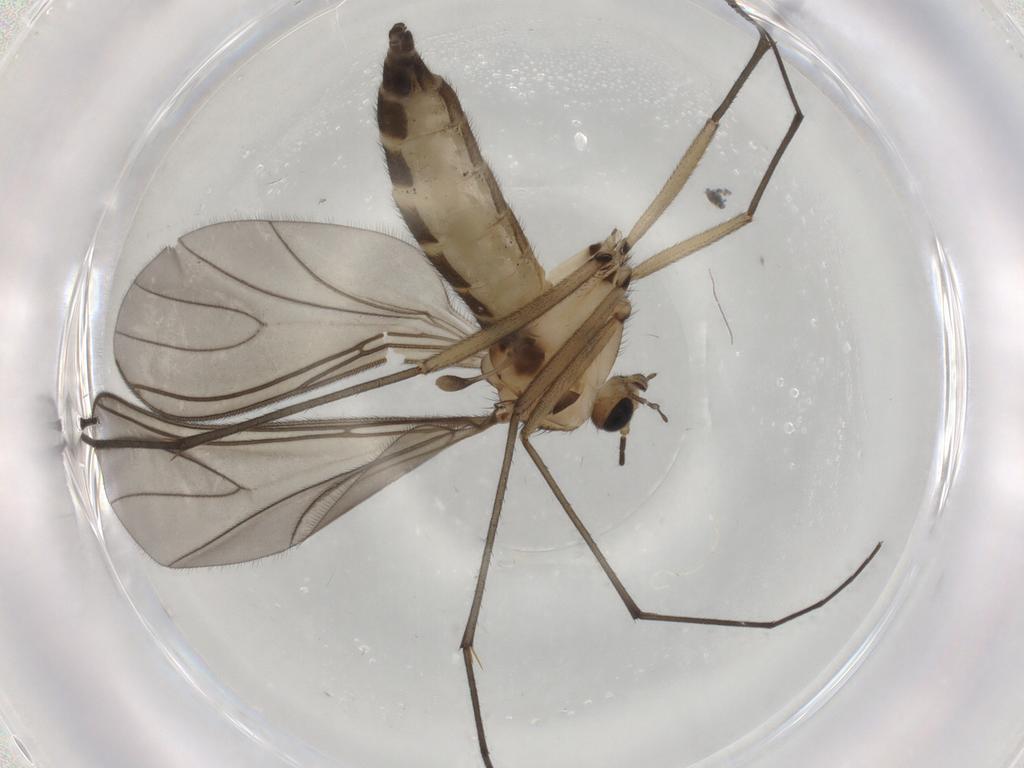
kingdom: Animalia
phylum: Arthropoda
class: Insecta
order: Diptera
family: Sciaridae
